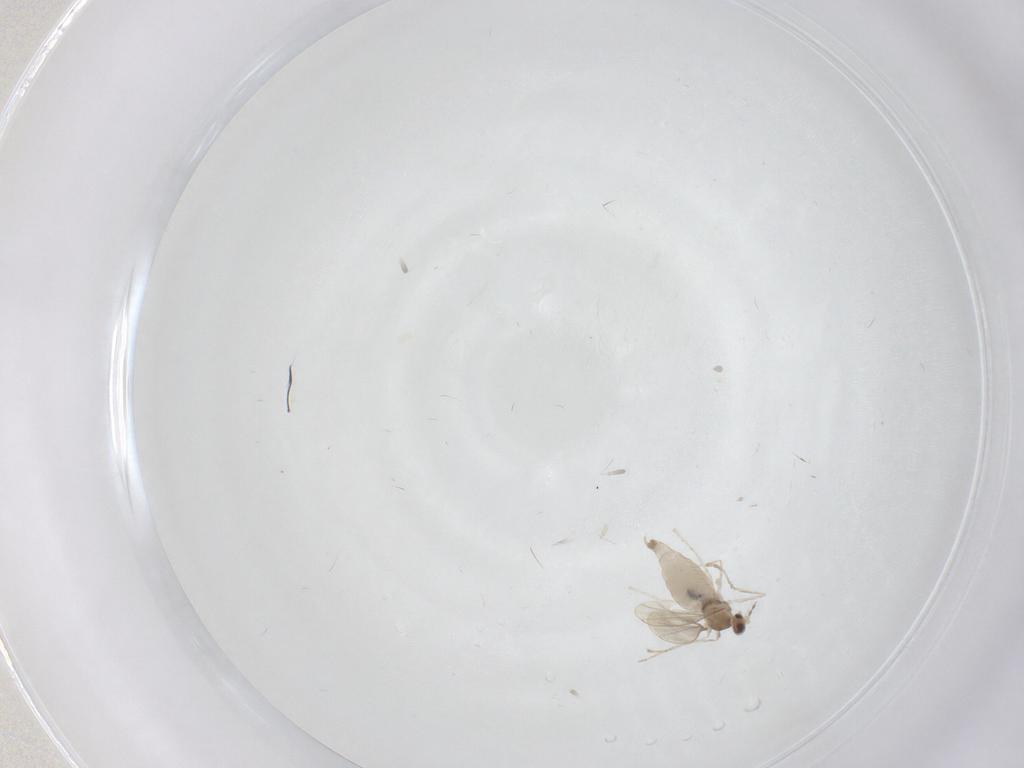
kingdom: Animalia
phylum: Arthropoda
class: Insecta
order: Diptera
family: Cecidomyiidae
